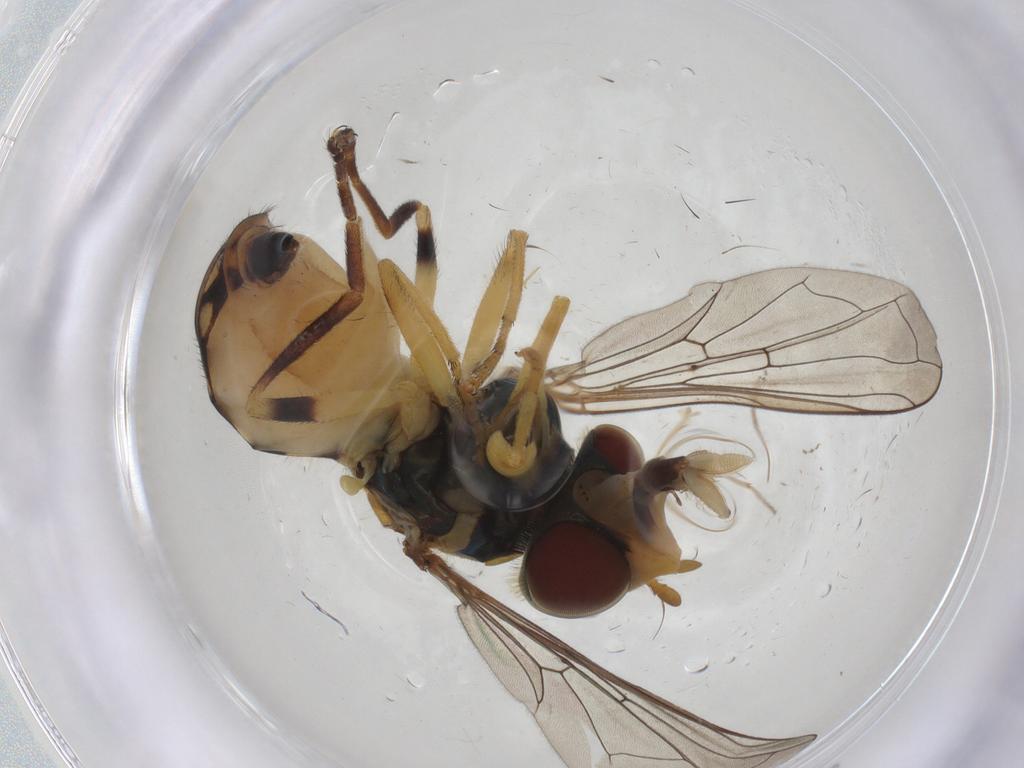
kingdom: Animalia
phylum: Arthropoda
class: Insecta
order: Diptera
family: Syrphidae
